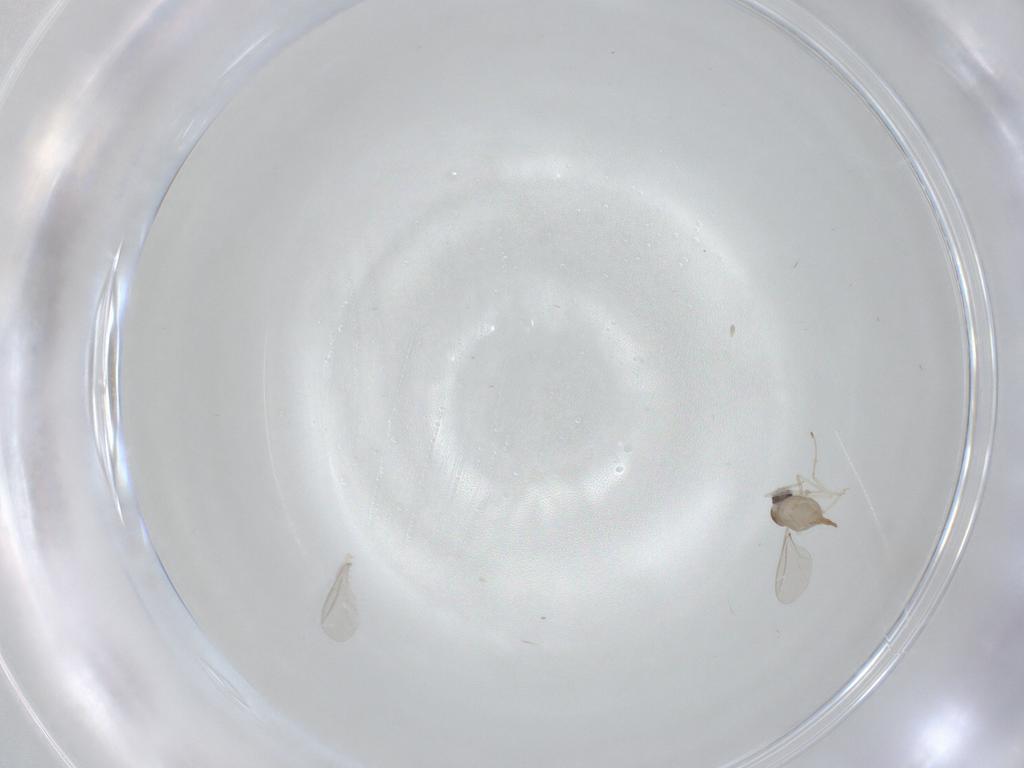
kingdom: Animalia
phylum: Arthropoda
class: Insecta
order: Diptera
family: Cecidomyiidae
